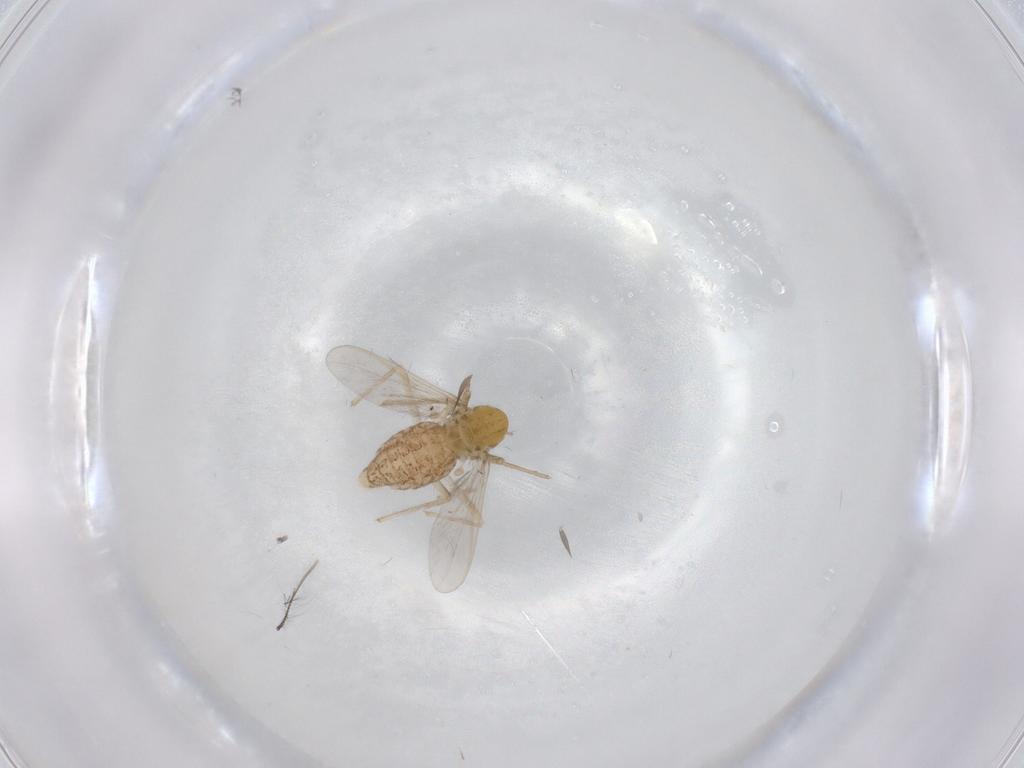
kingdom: Animalia
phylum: Arthropoda
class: Insecta
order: Diptera
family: Chironomidae
